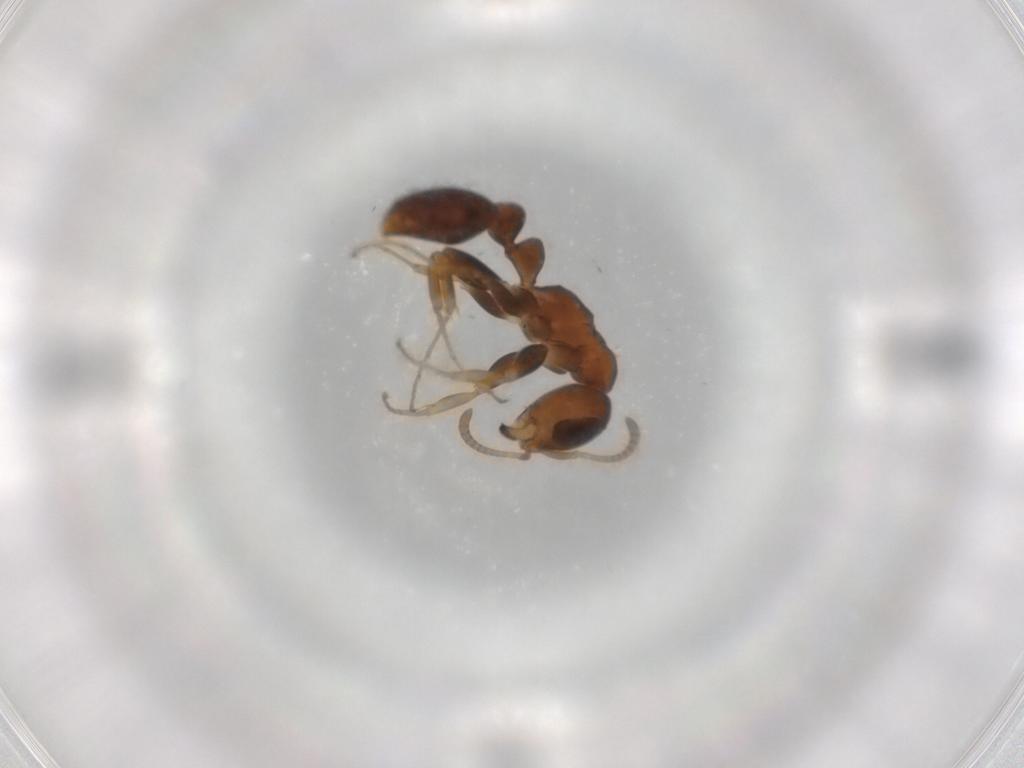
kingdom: Animalia
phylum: Arthropoda
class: Insecta
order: Hymenoptera
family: Formicidae
